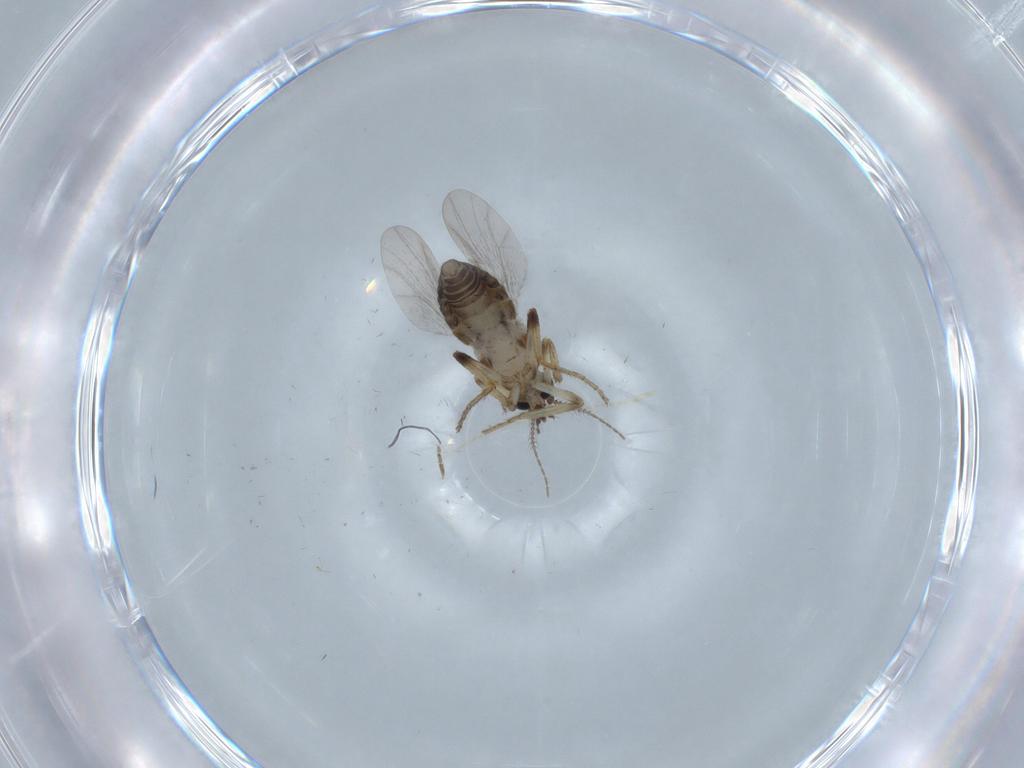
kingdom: Animalia
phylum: Arthropoda
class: Insecta
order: Diptera
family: Ceratopogonidae
